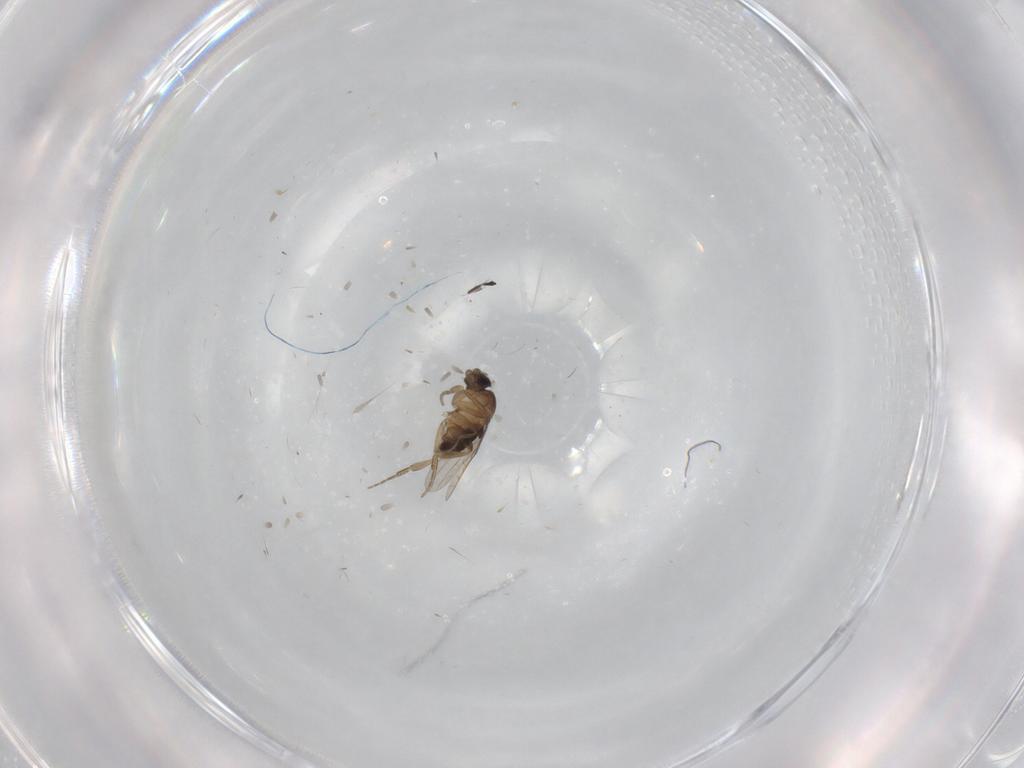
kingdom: Animalia
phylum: Arthropoda
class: Insecta
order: Diptera
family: Phoridae
